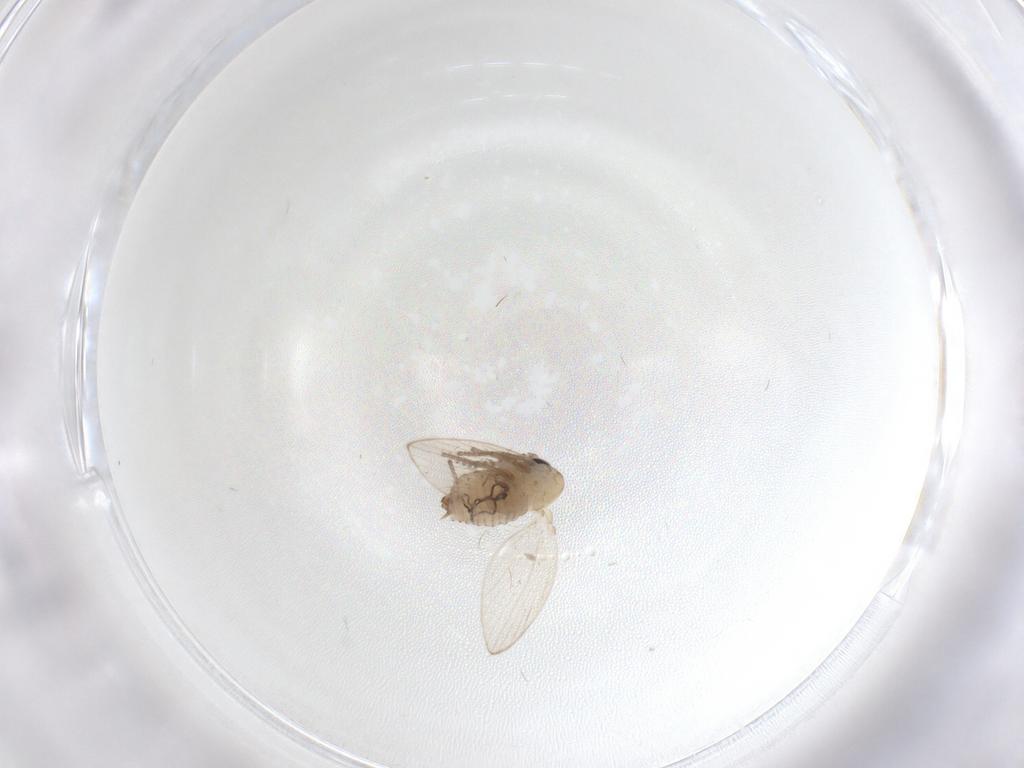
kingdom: Animalia
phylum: Arthropoda
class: Insecta
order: Diptera
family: Psychodidae
